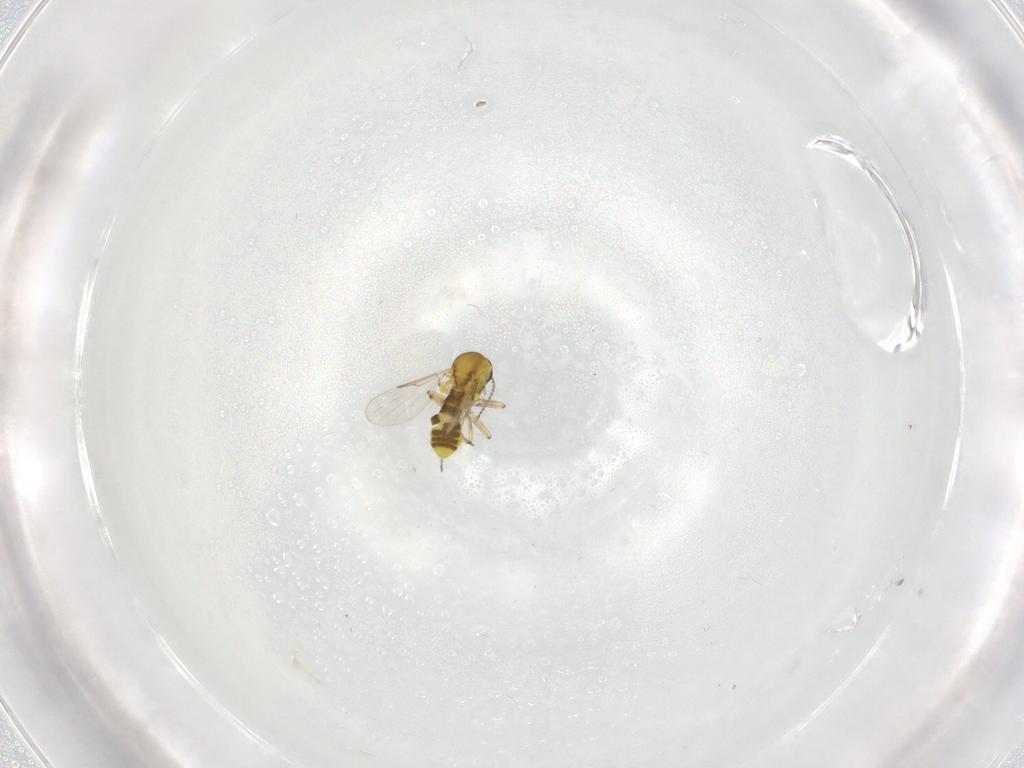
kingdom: Animalia
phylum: Arthropoda
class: Insecta
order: Diptera
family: Ceratopogonidae
